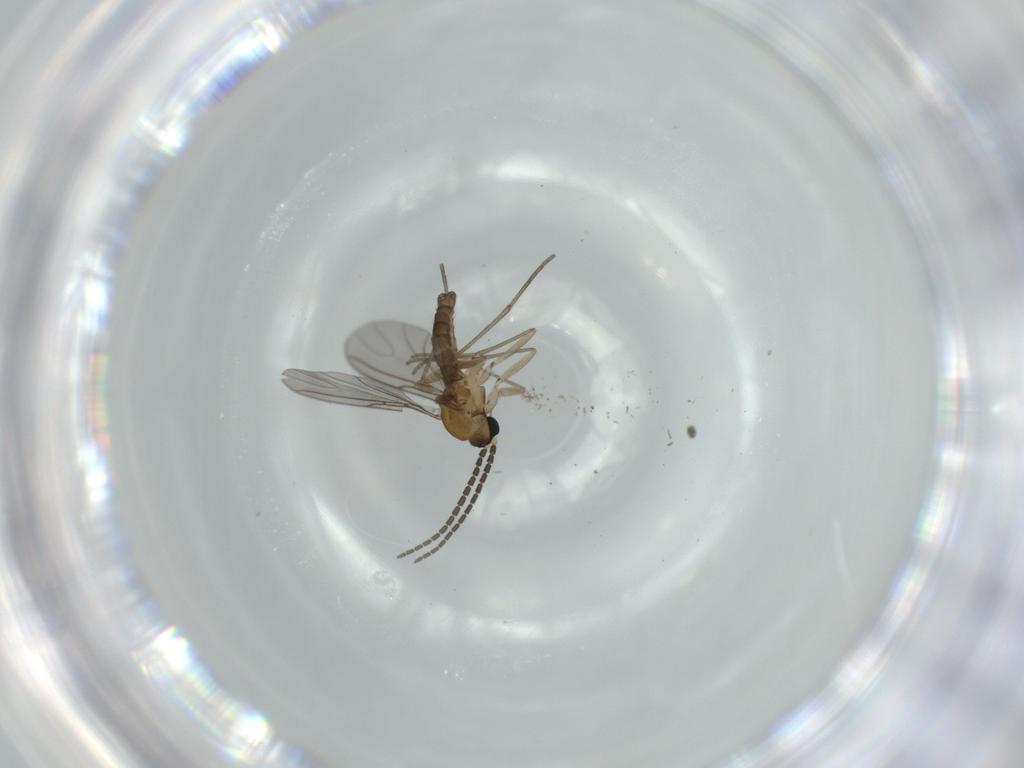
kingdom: Animalia
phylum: Arthropoda
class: Insecta
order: Diptera
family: Sciaridae
